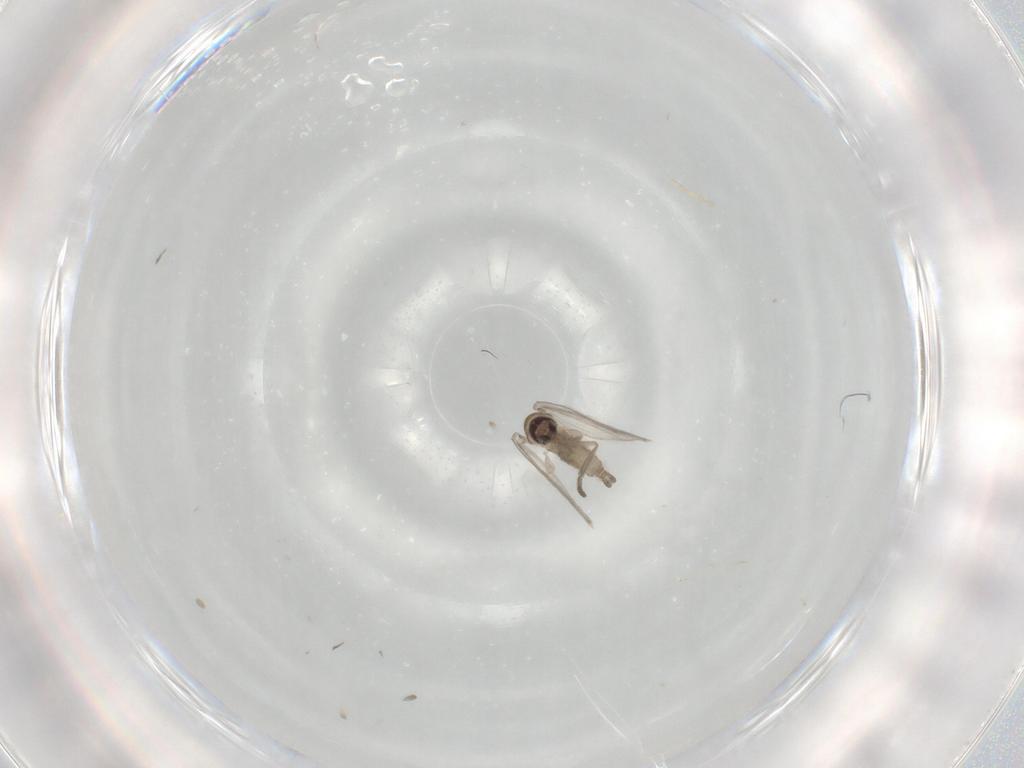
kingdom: Animalia
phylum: Arthropoda
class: Insecta
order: Diptera
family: Psychodidae
